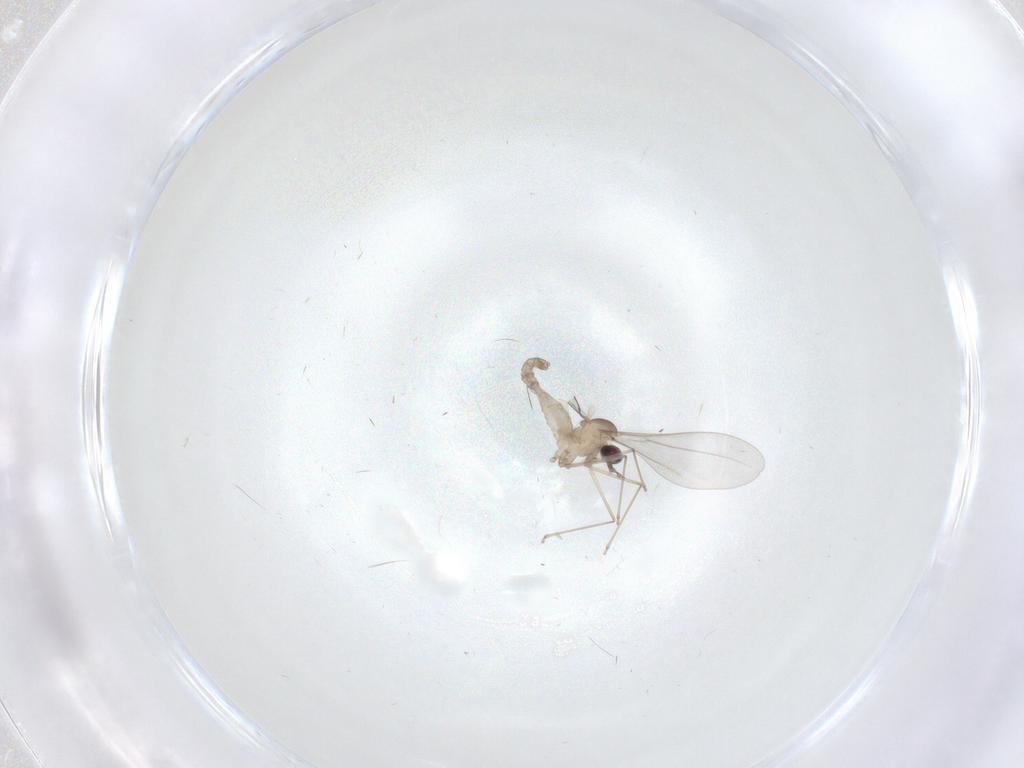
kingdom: Animalia
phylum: Arthropoda
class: Insecta
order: Diptera
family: Cecidomyiidae
